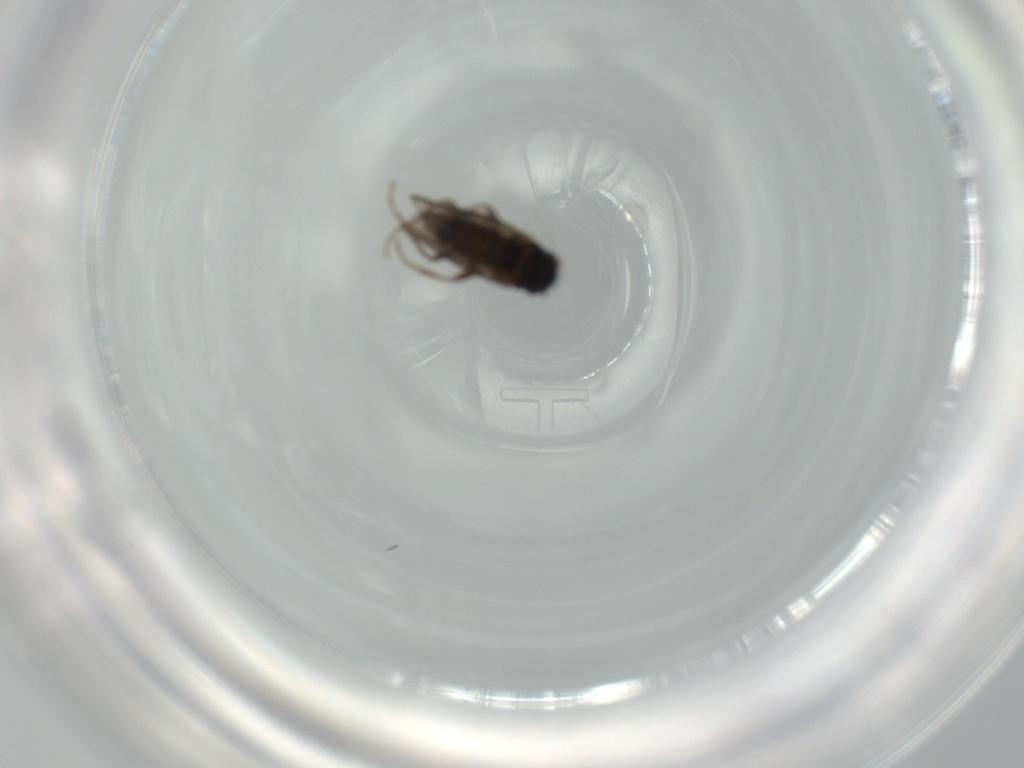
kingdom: Animalia
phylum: Arthropoda
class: Insecta
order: Diptera
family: Sphaeroceridae
